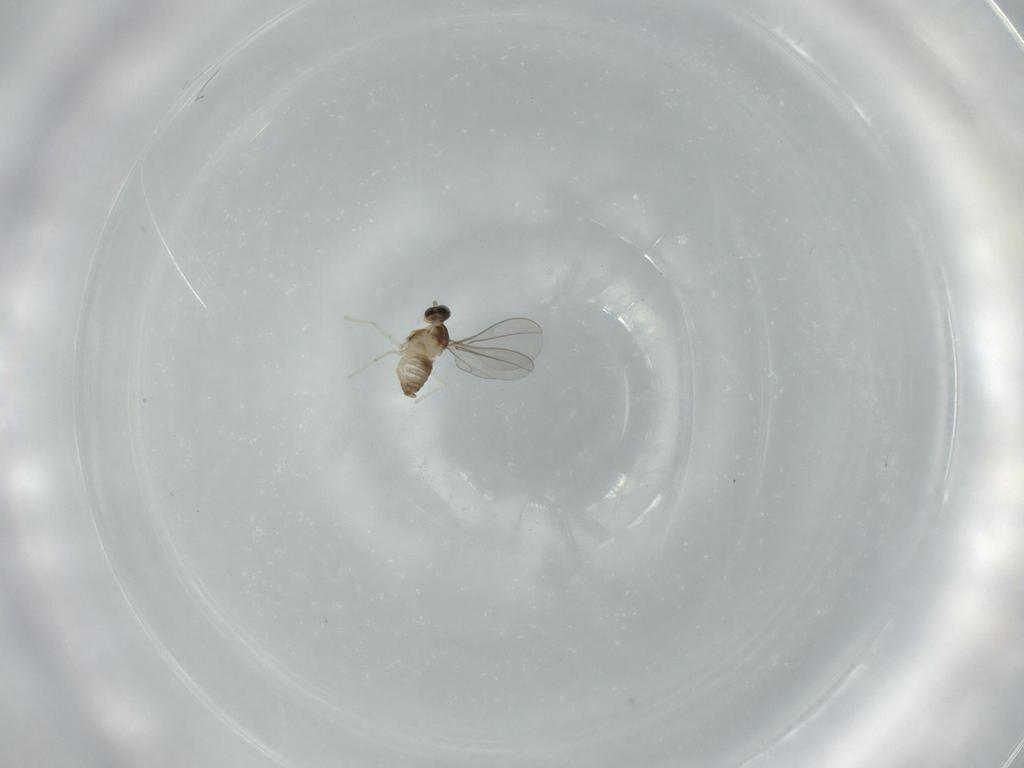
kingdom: Animalia
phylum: Arthropoda
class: Insecta
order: Diptera
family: Cecidomyiidae
